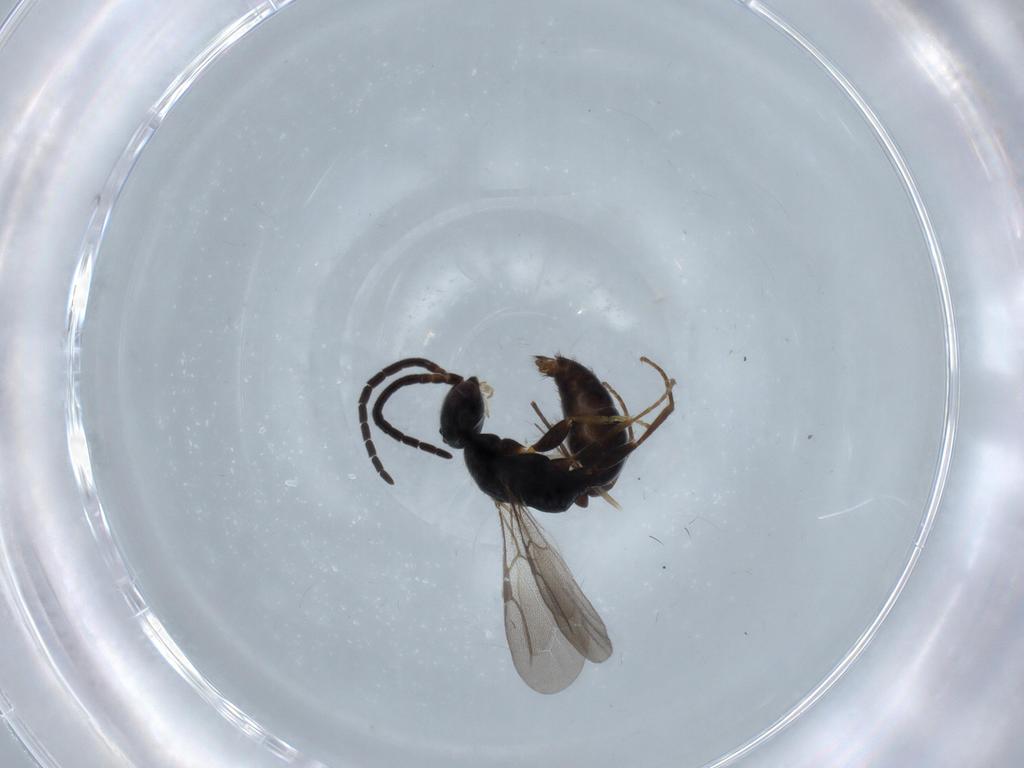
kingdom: Animalia
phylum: Arthropoda
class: Insecta
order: Hymenoptera
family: Bethylidae
